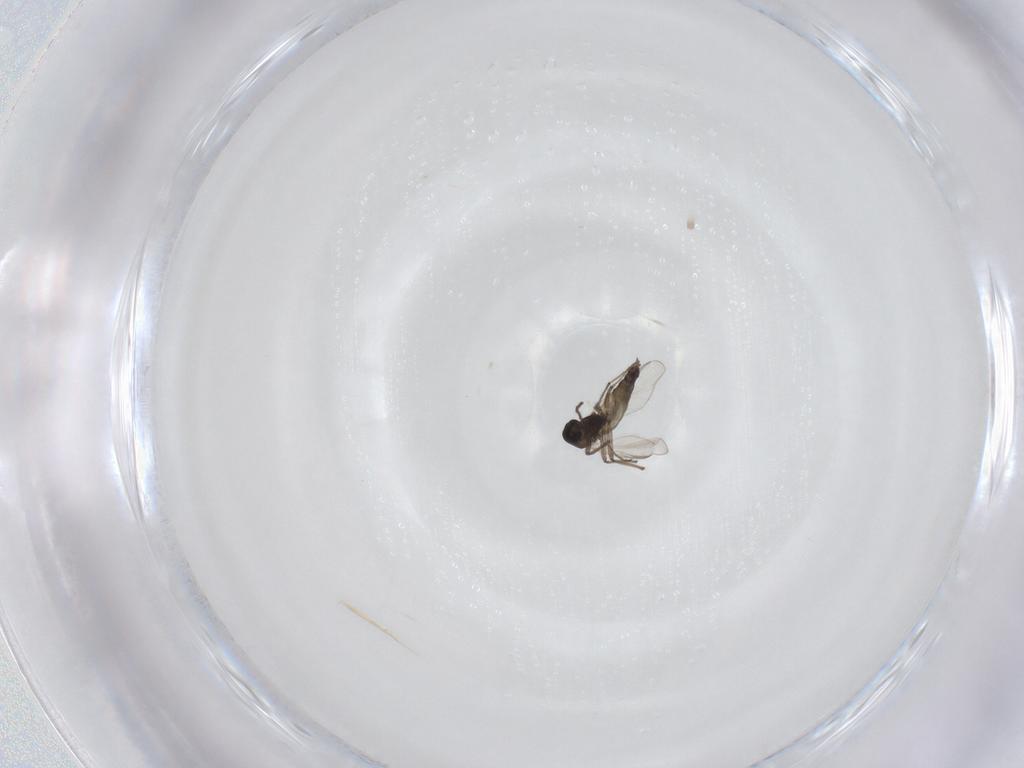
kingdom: Animalia
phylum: Arthropoda
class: Insecta
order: Diptera
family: Chironomidae
